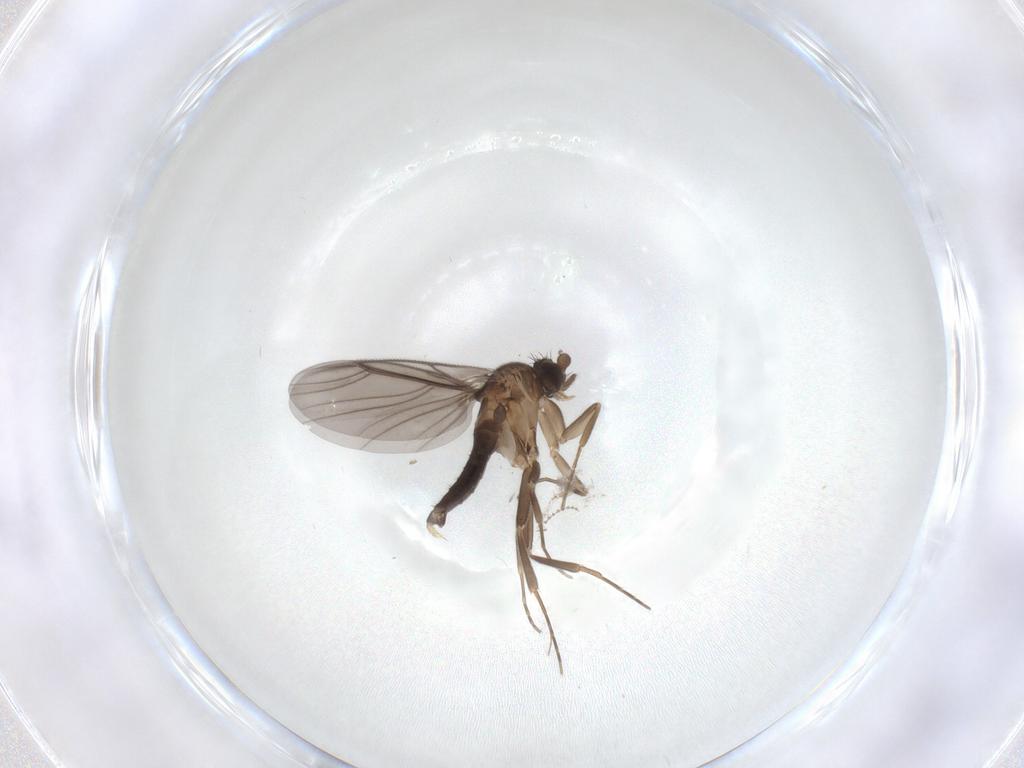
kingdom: Animalia
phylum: Arthropoda
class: Insecta
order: Diptera
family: Chironomidae
